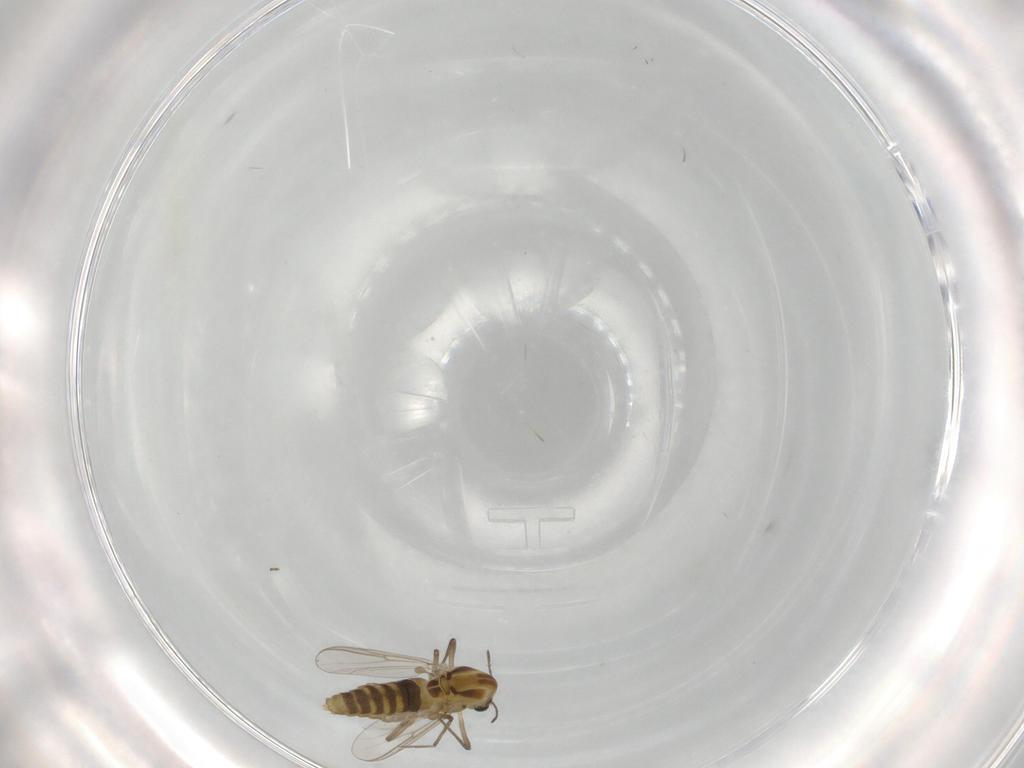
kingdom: Animalia
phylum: Arthropoda
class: Insecta
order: Diptera
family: Chironomidae
